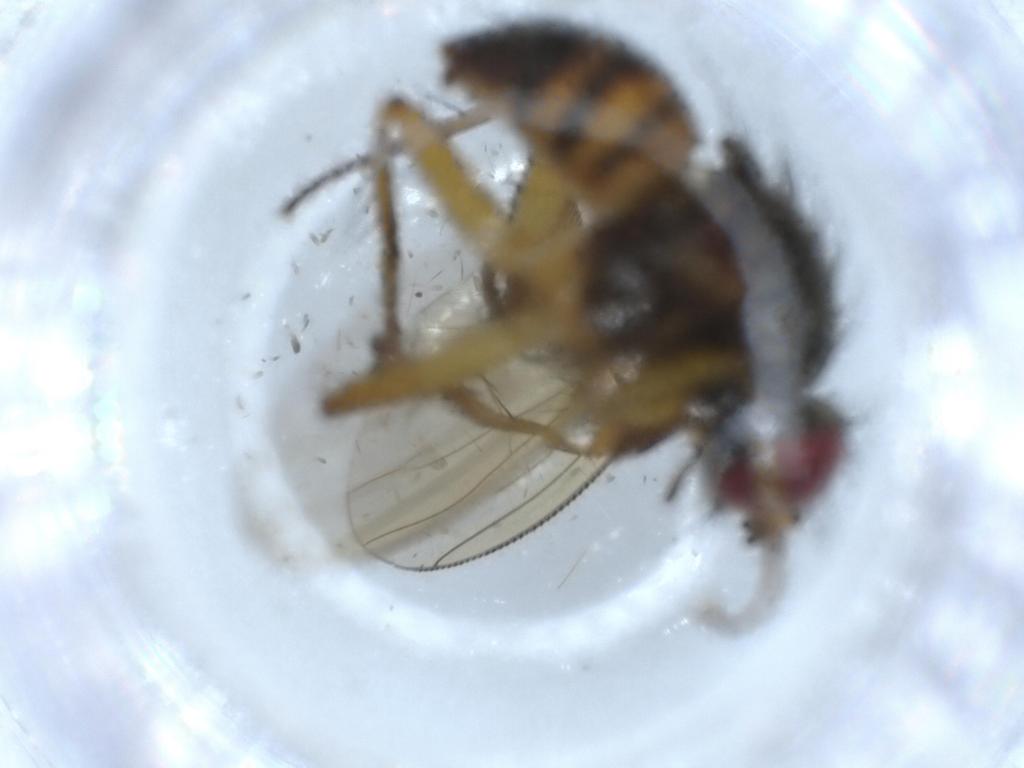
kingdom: Animalia
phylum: Arthropoda
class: Insecta
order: Diptera
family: Muscidae
